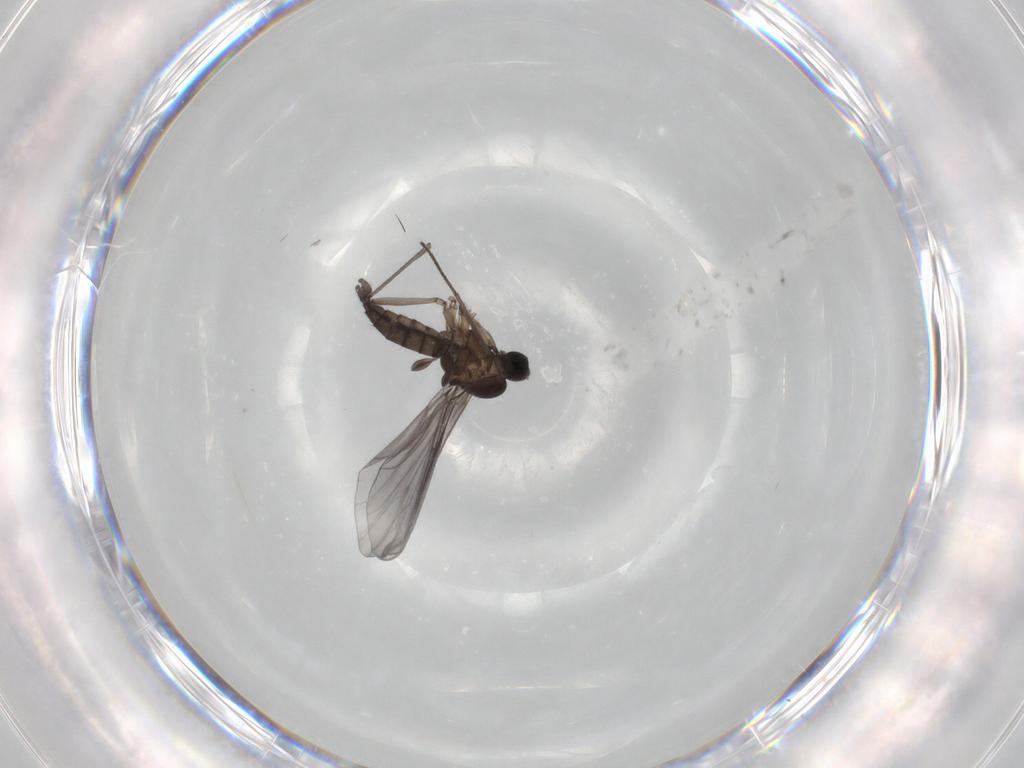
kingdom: Animalia
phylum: Arthropoda
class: Insecta
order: Diptera
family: Sciaridae
